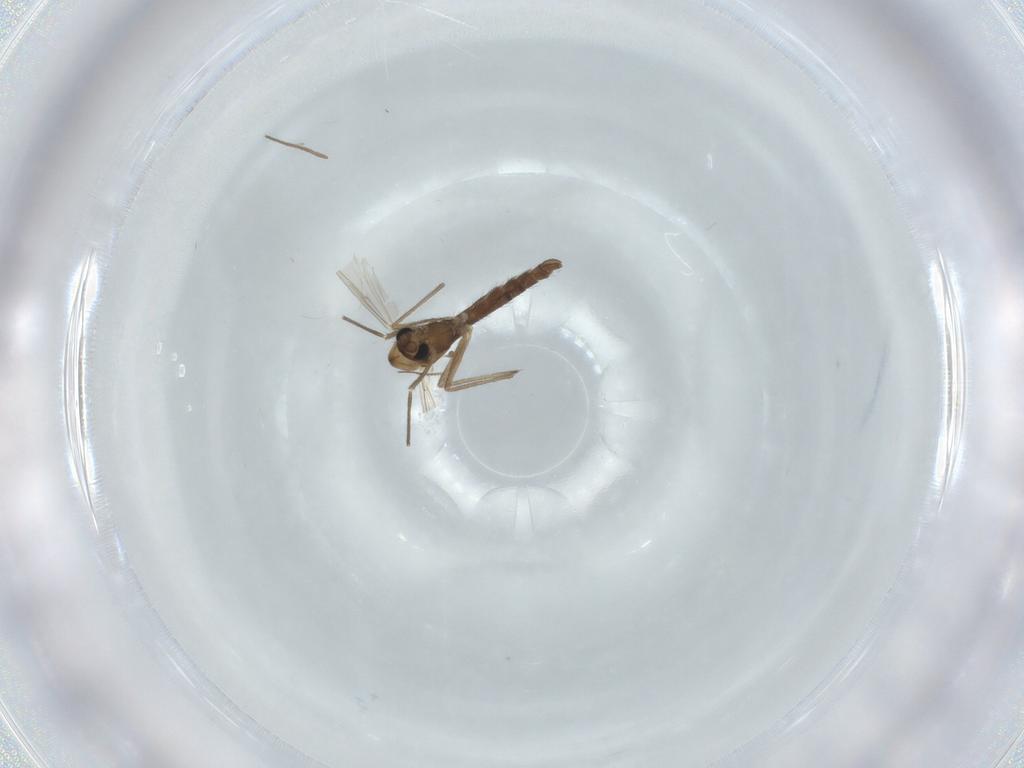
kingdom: Animalia
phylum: Arthropoda
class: Insecta
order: Diptera
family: Chironomidae
